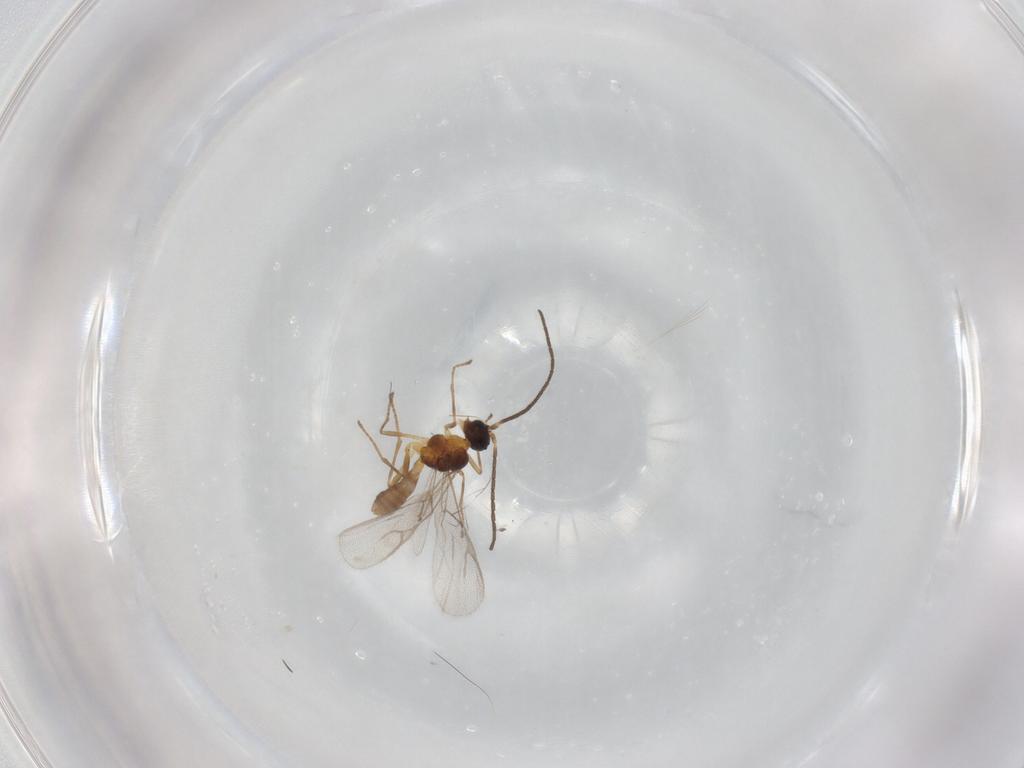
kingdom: Animalia
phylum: Arthropoda
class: Insecta
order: Hymenoptera
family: Braconidae
